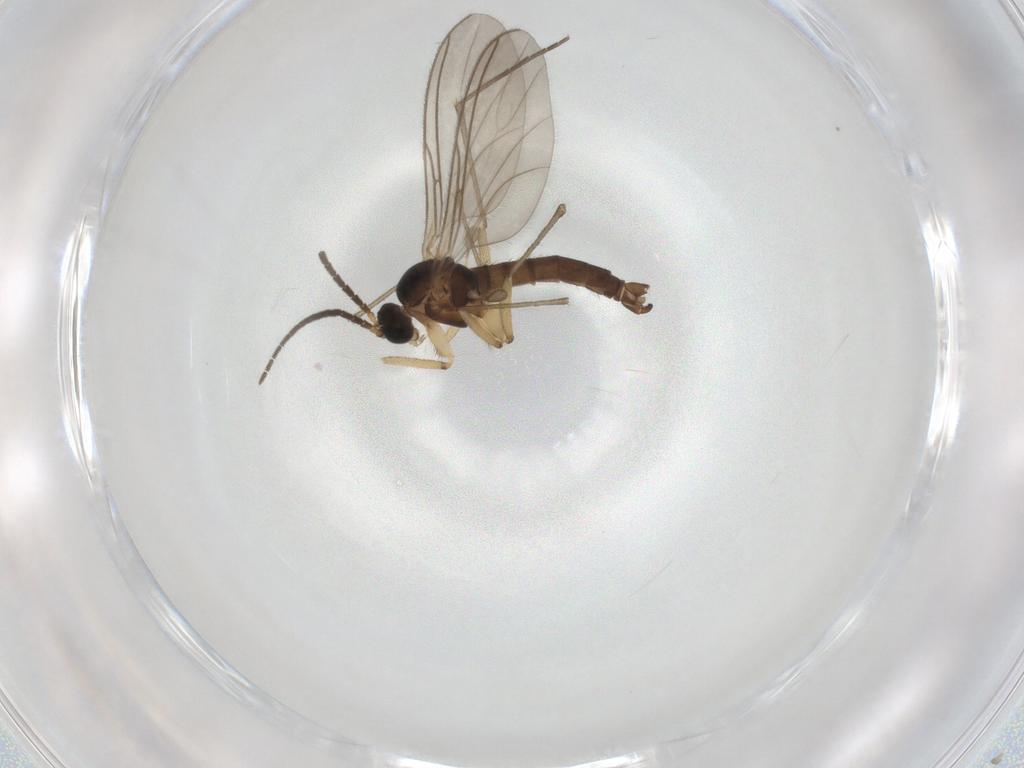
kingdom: Animalia
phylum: Arthropoda
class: Insecta
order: Diptera
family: Sciaridae
